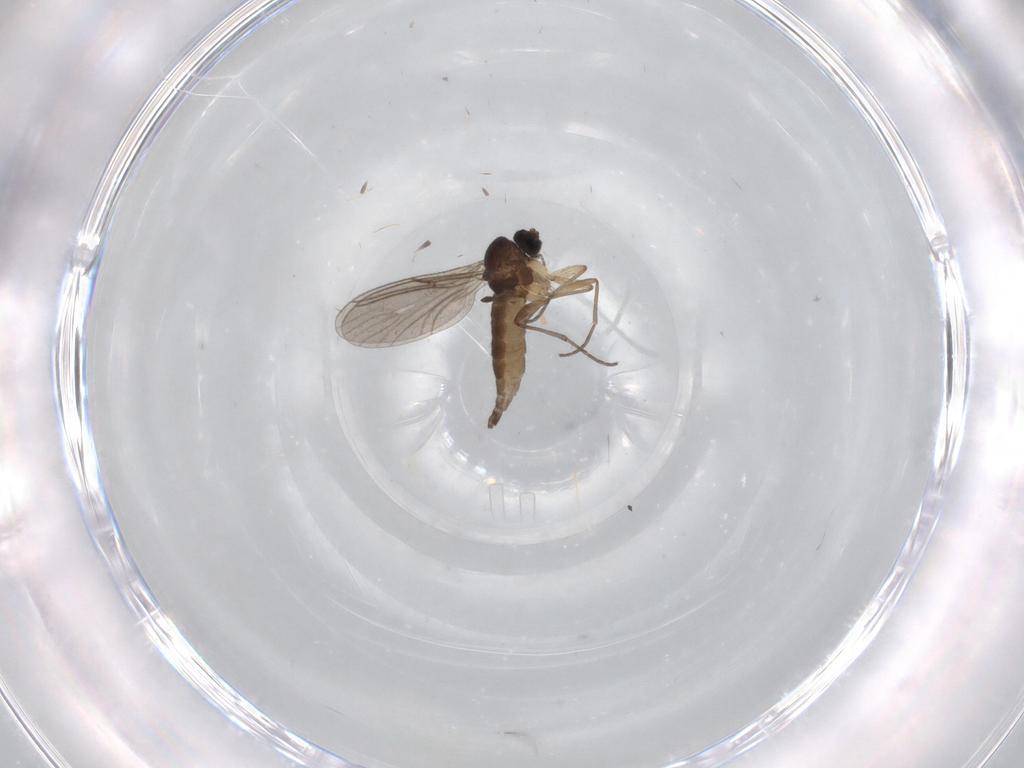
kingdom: Animalia
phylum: Arthropoda
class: Insecta
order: Diptera
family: Sciaridae
